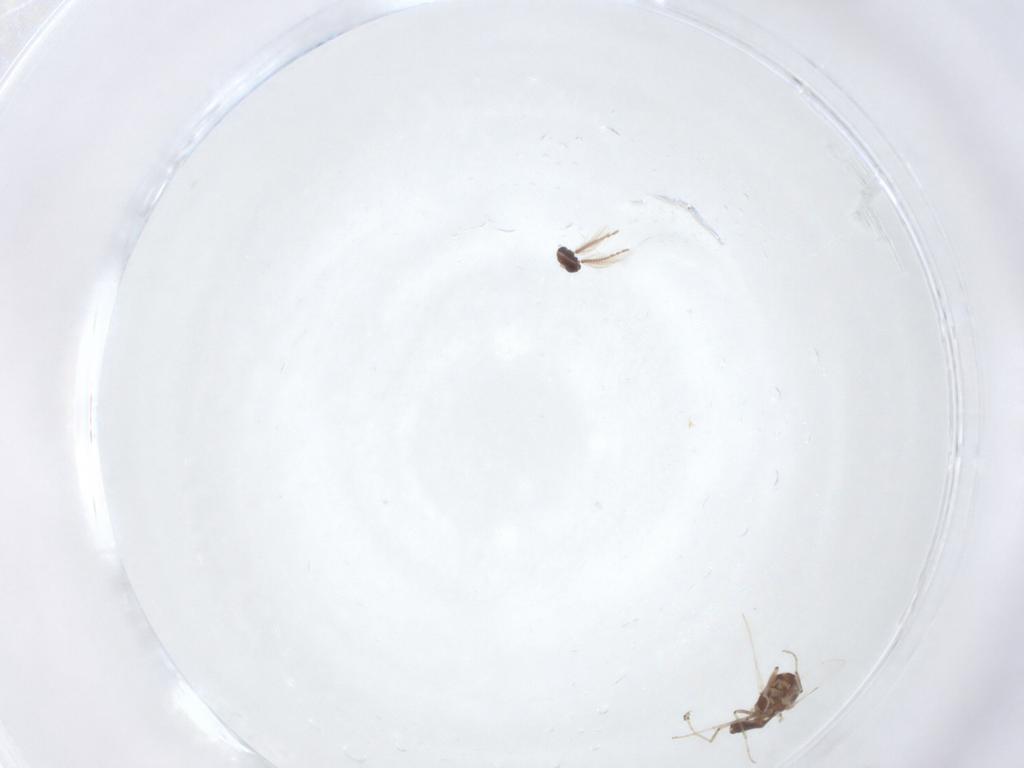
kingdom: Animalia
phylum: Arthropoda
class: Insecta
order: Diptera
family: Ceratopogonidae
